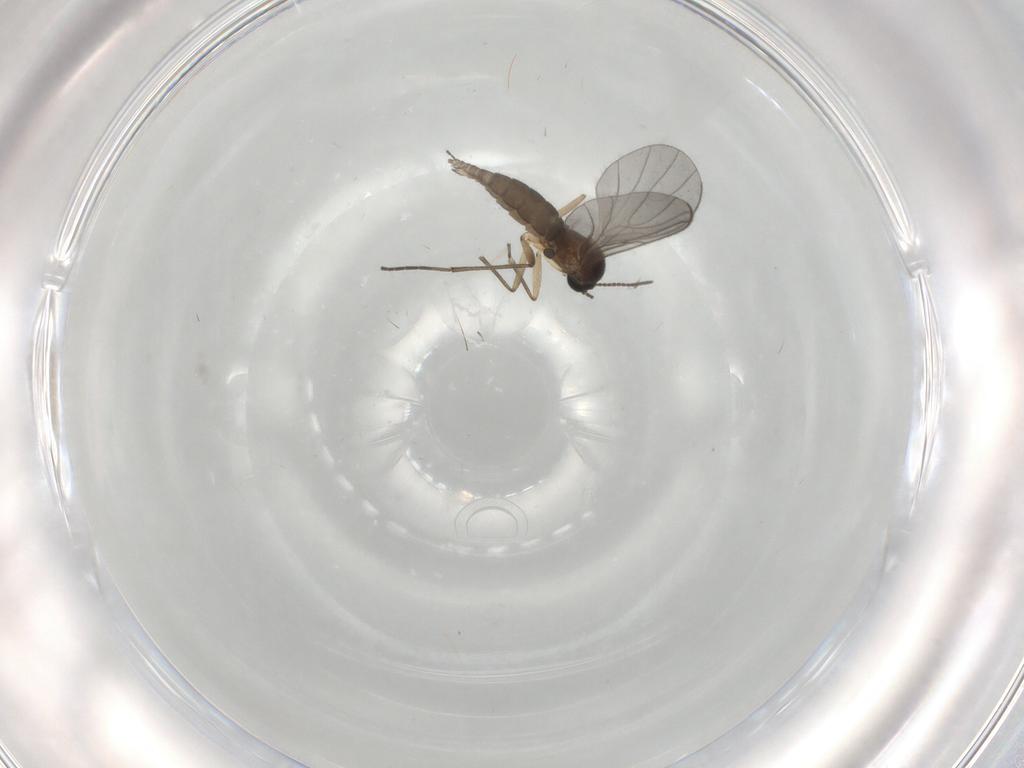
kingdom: Animalia
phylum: Arthropoda
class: Insecta
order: Diptera
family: Sciaridae
